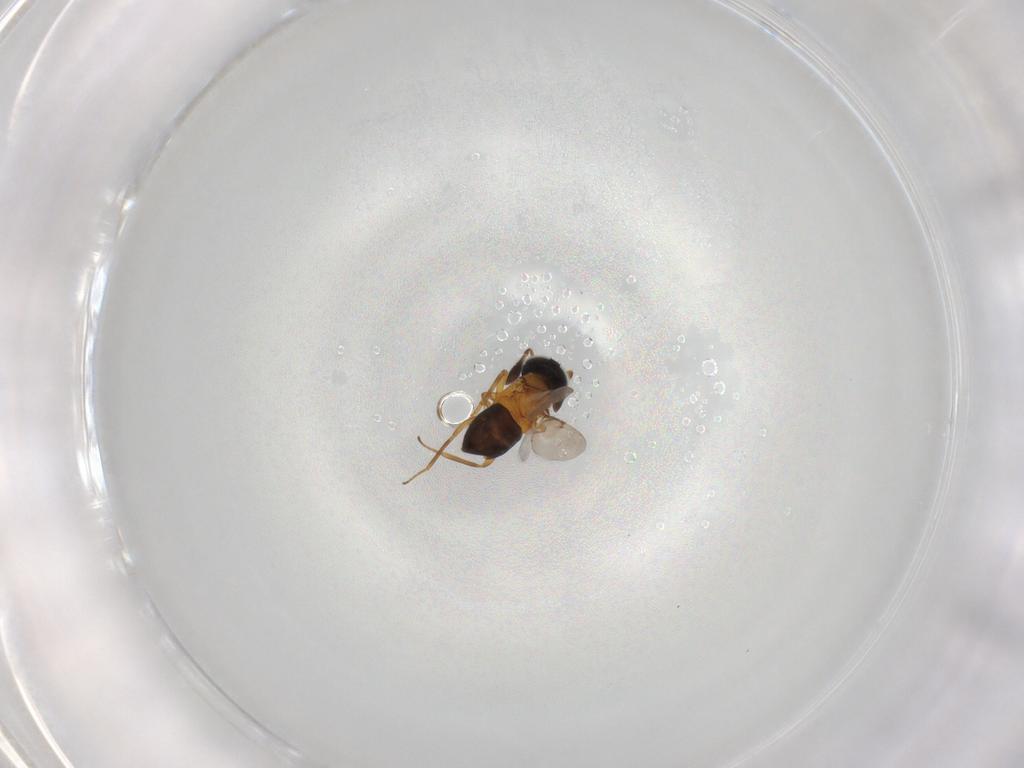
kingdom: Animalia
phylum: Arthropoda
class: Insecta
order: Hymenoptera
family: Encyrtidae
